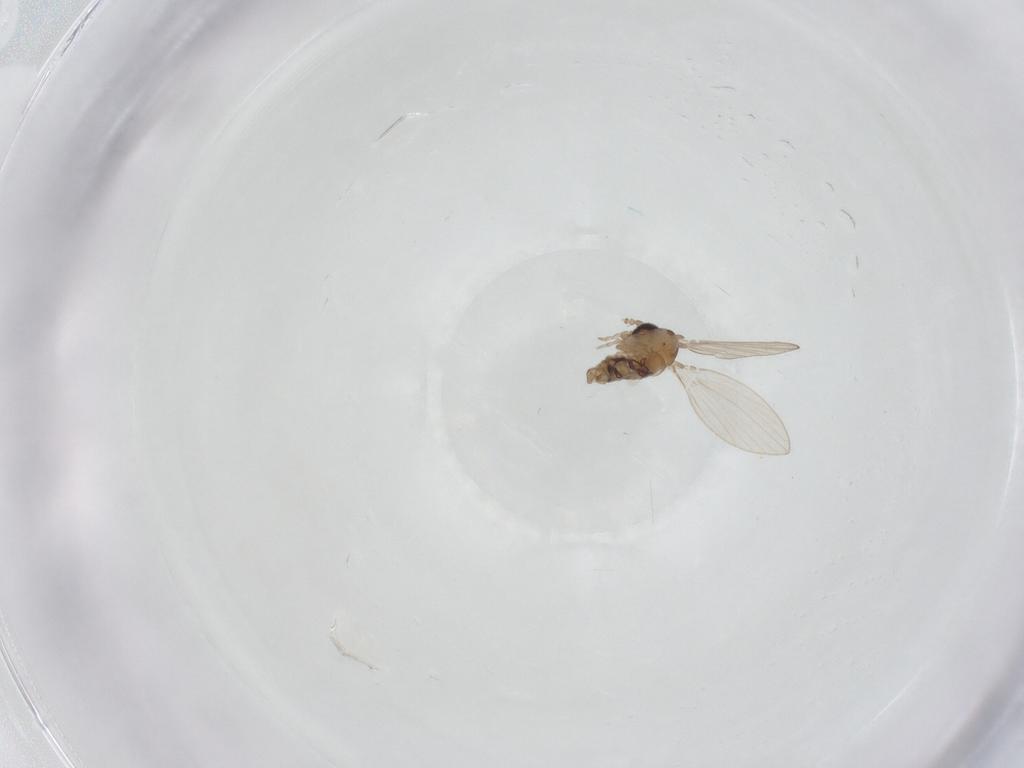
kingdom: Animalia
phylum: Arthropoda
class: Insecta
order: Diptera
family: Psychodidae
